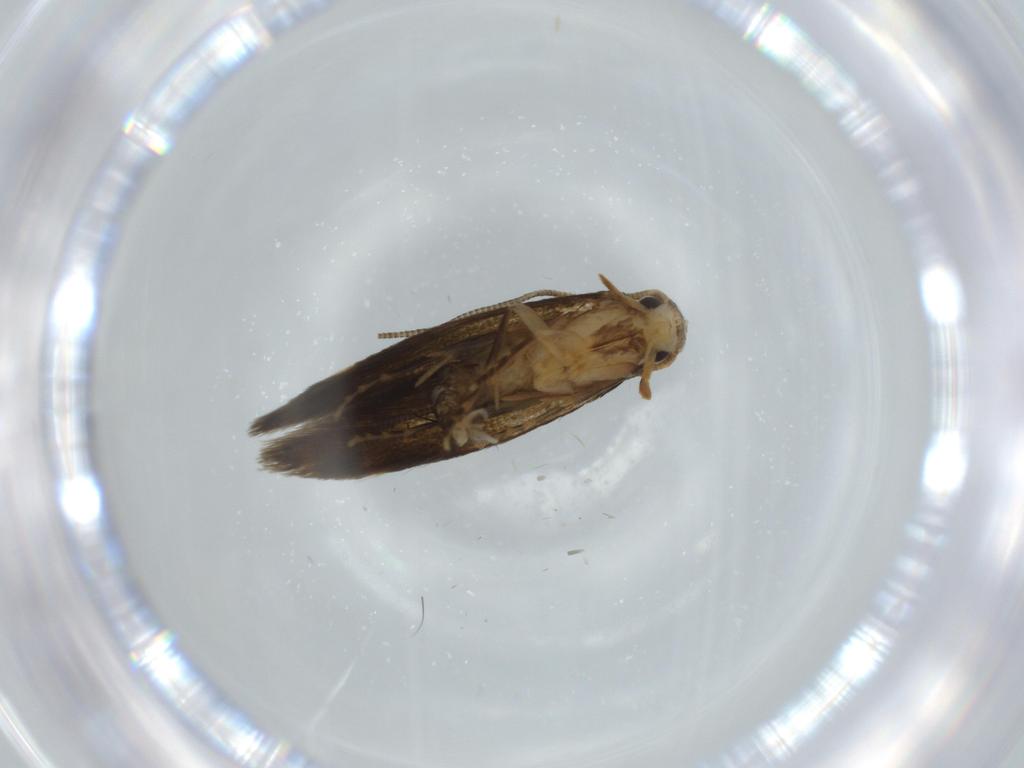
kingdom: Animalia
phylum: Arthropoda
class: Insecta
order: Lepidoptera
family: Tineidae
